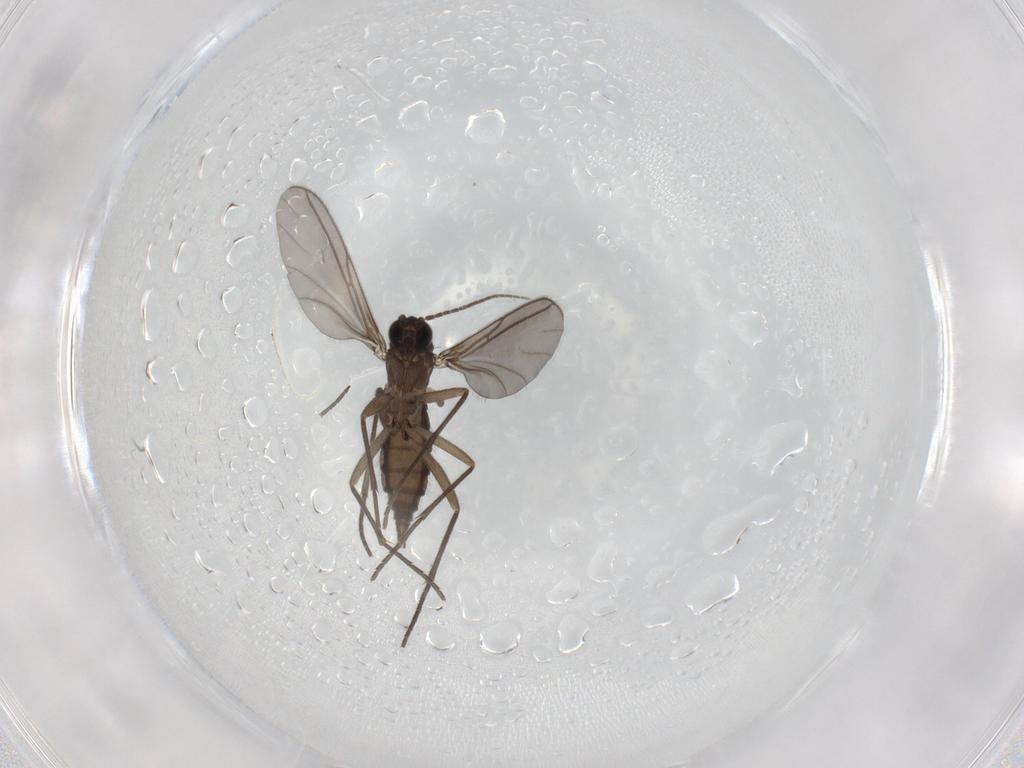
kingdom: Animalia
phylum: Arthropoda
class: Insecta
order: Diptera
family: Sciaridae
